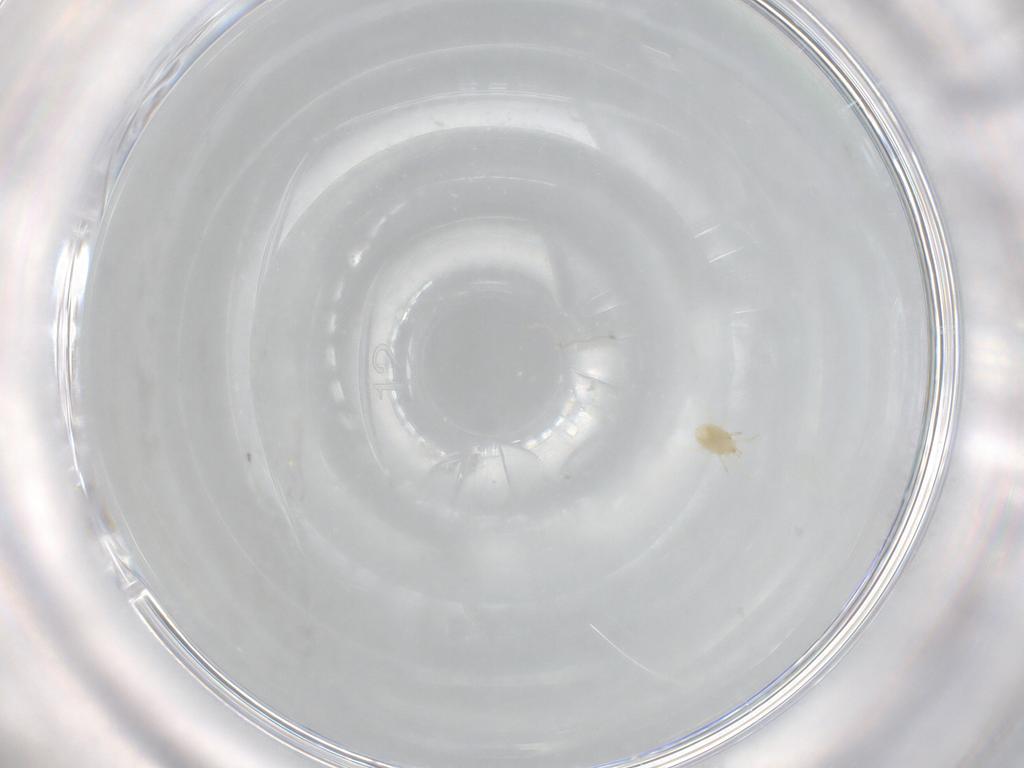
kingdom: Animalia
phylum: Arthropoda
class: Arachnida
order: Mesostigmata
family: Phytoseiidae
